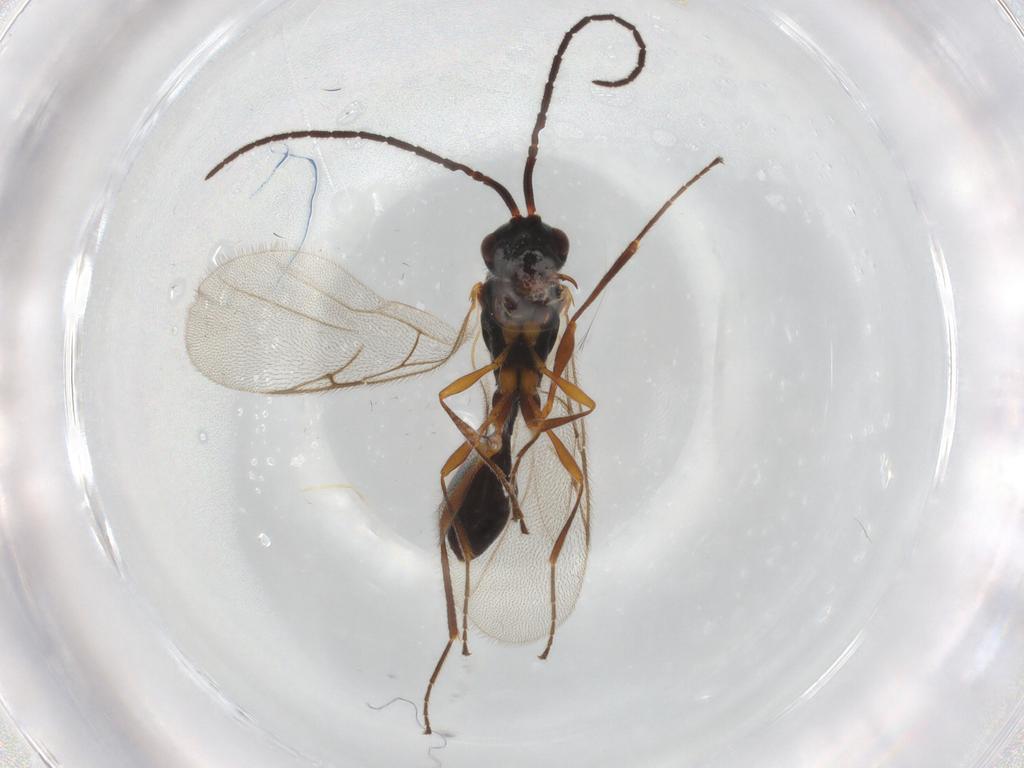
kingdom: Animalia
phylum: Arthropoda
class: Insecta
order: Hymenoptera
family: Diapriidae
